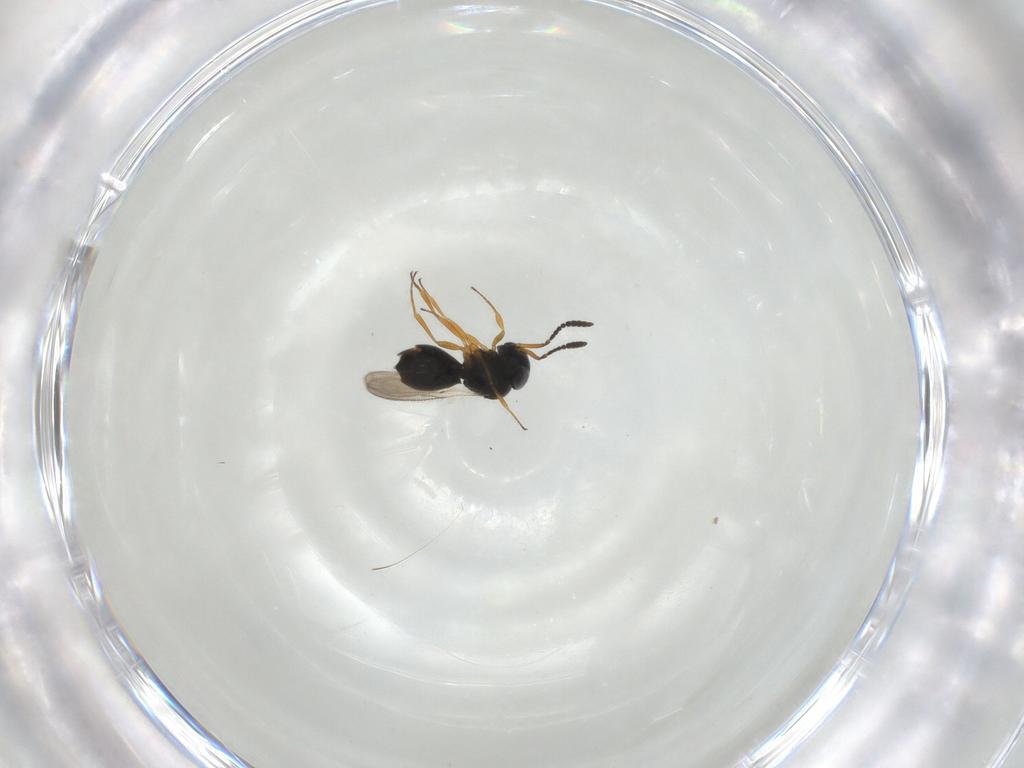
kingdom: Animalia
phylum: Arthropoda
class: Insecta
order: Hymenoptera
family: Scelionidae
